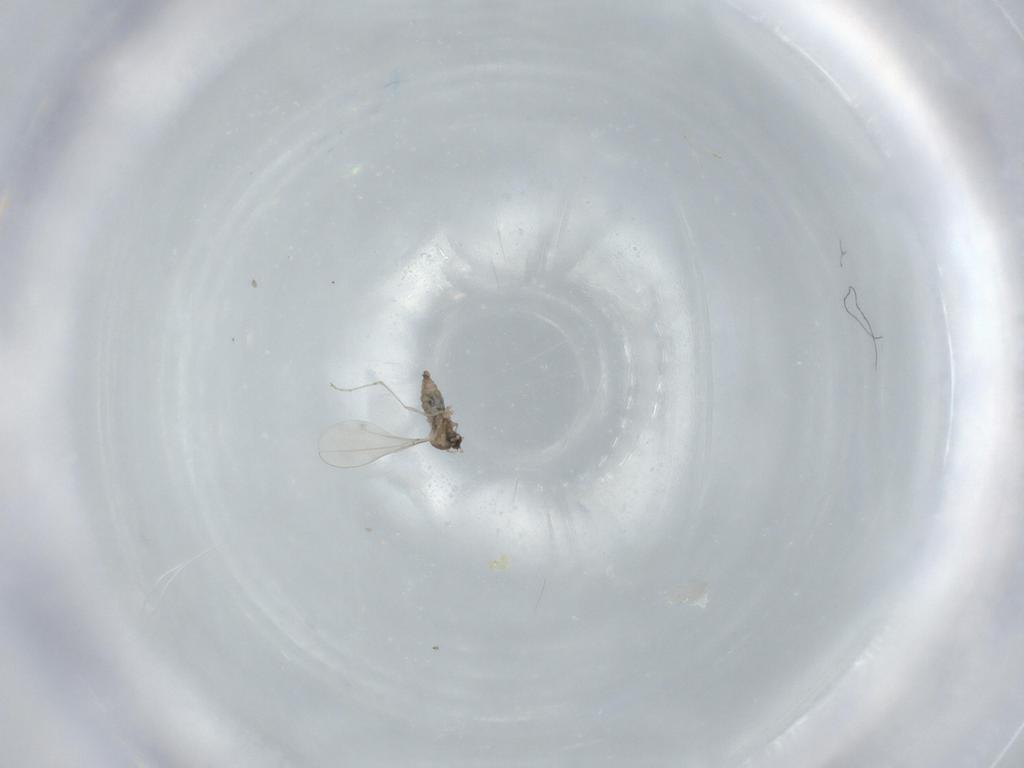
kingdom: Animalia
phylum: Arthropoda
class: Insecta
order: Diptera
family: Cecidomyiidae
